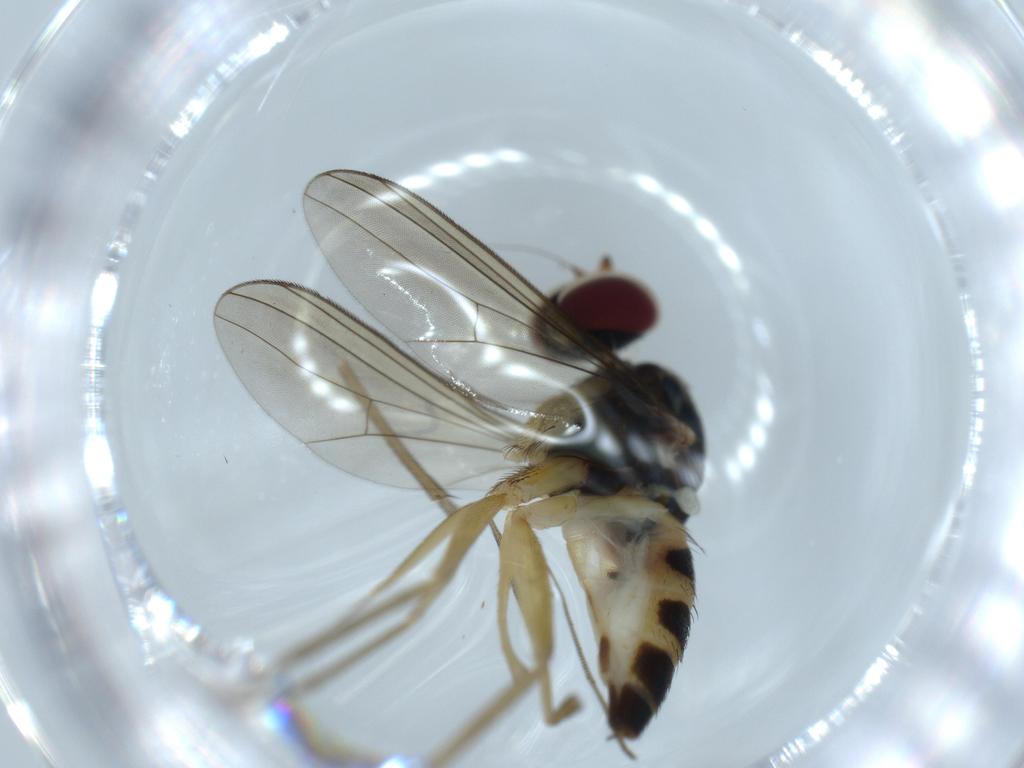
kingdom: Animalia
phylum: Arthropoda
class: Insecta
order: Diptera
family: Dolichopodidae
